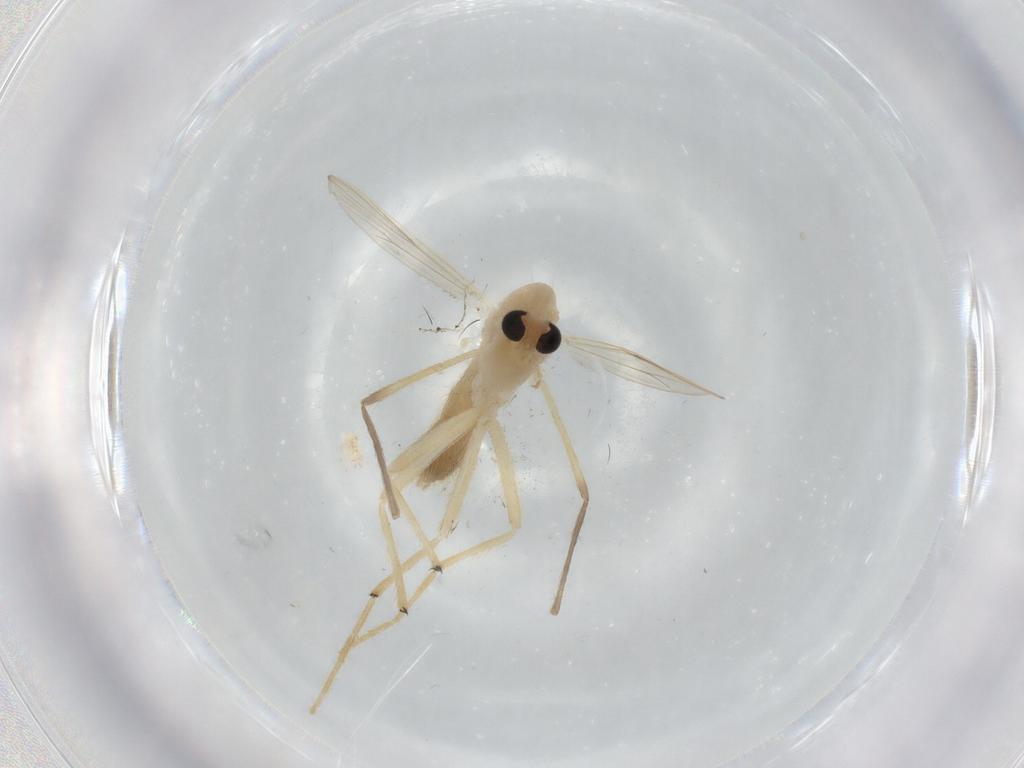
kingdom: Animalia
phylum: Arthropoda
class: Insecta
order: Diptera
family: Chironomidae
